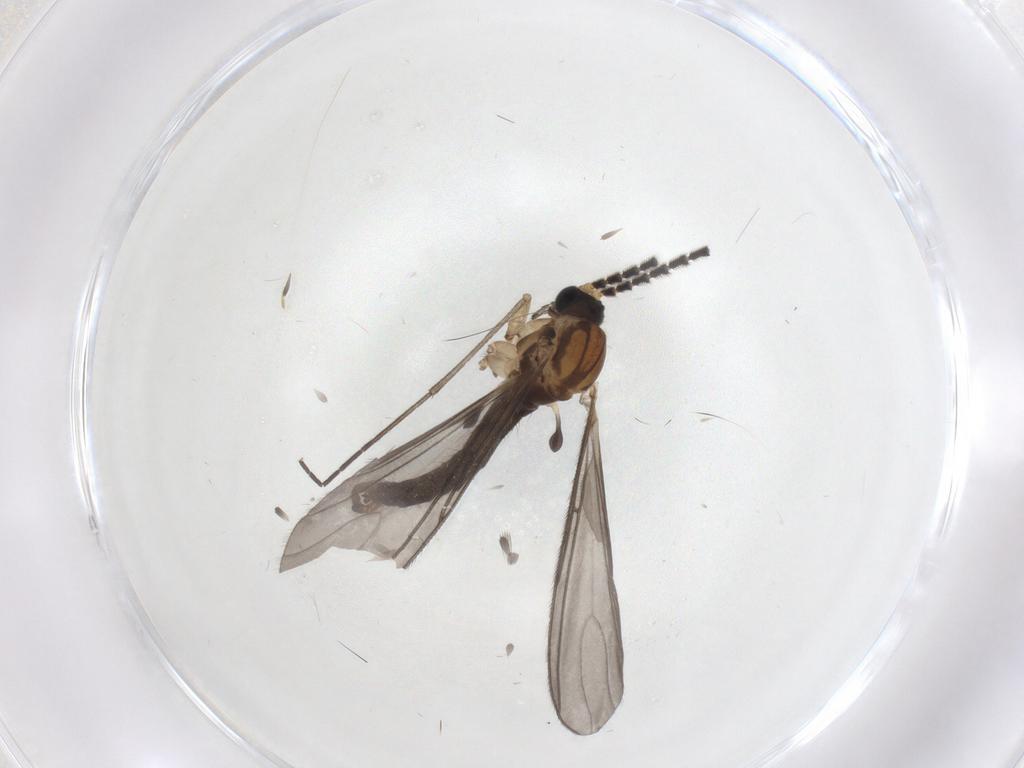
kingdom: Animalia
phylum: Arthropoda
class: Insecta
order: Diptera
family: Sciaridae
